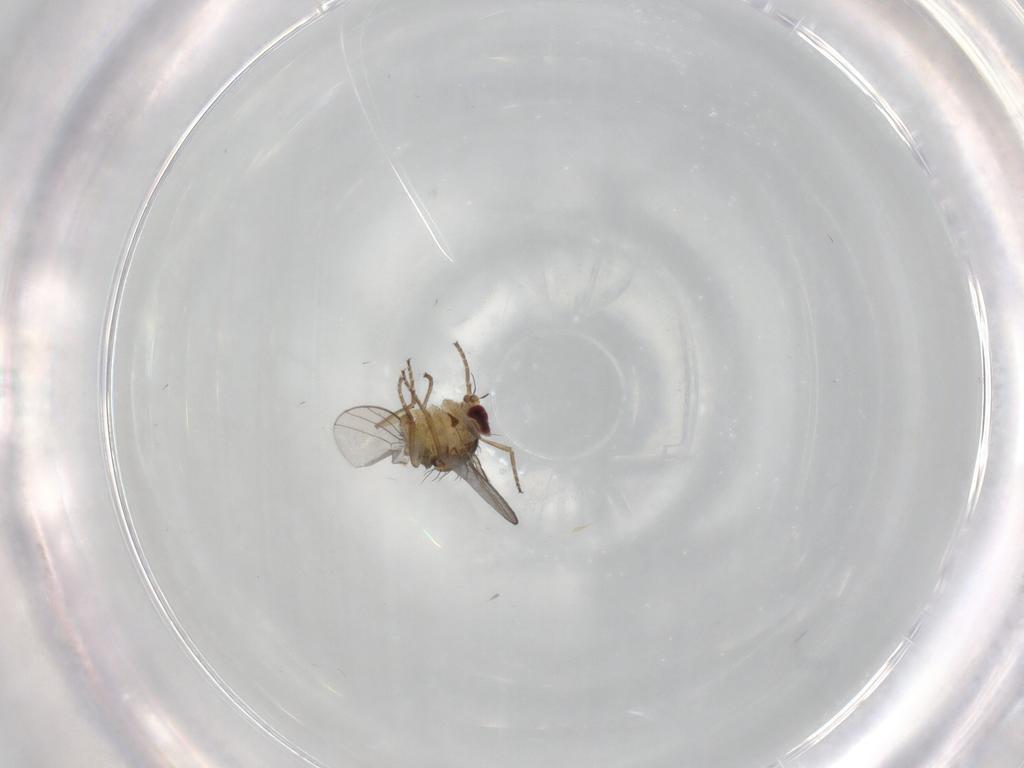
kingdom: Animalia
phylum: Arthropoda
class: Insecta
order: Diptera
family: Agromyzidae
